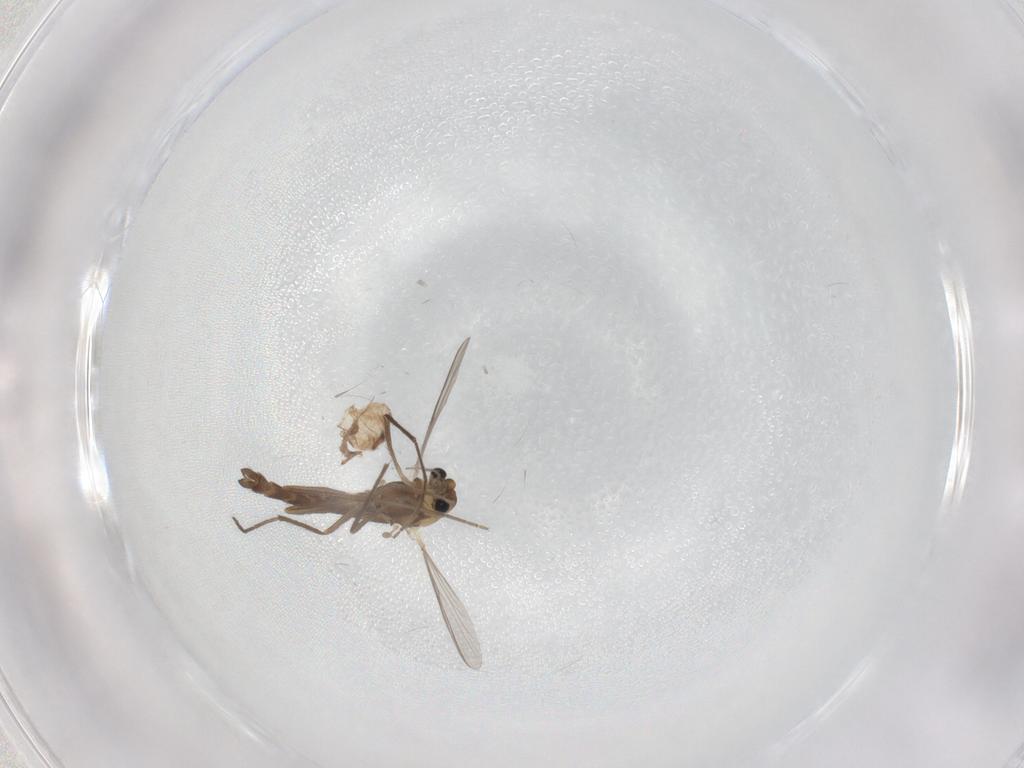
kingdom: Animalia
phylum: Arthropoda
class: Insecta
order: Diptera
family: Chironomidae
